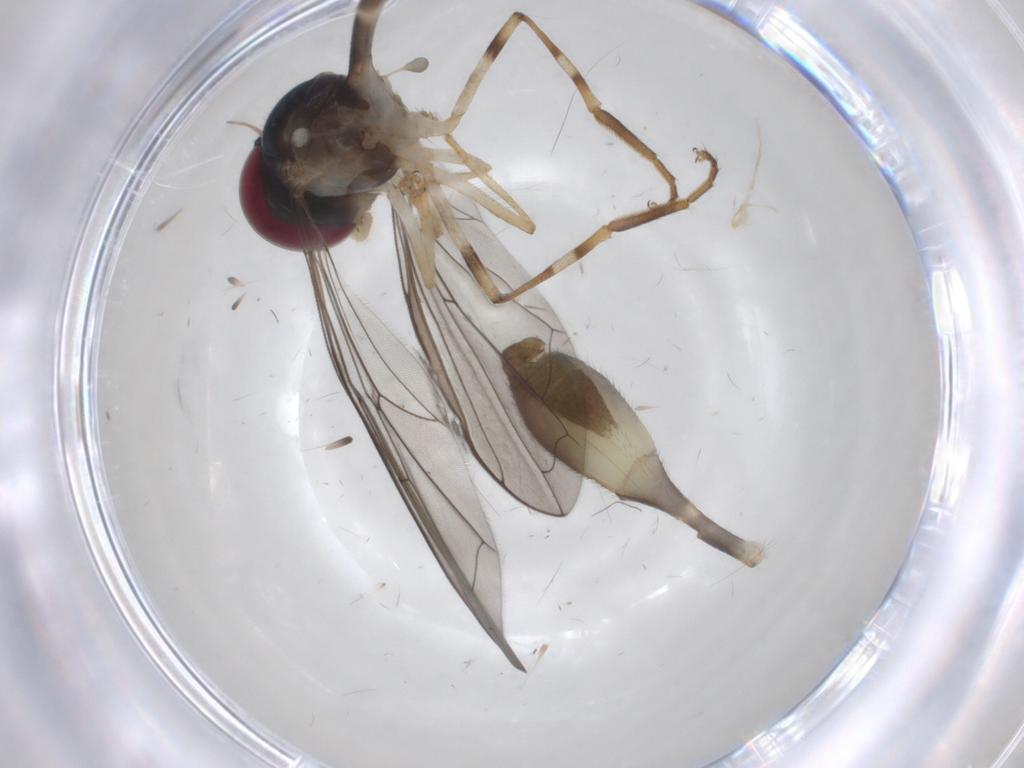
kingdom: Animalia
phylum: Arthropoda
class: Insecta
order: Diptera
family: Syrphidae
